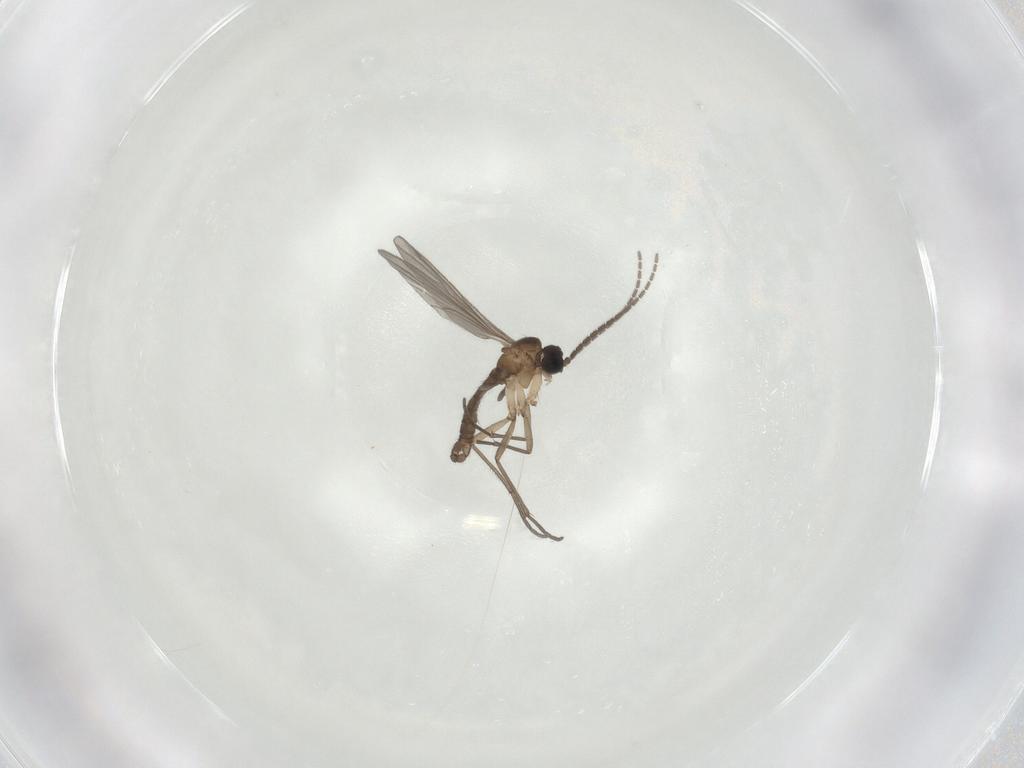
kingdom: Animalia
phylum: Arthropoda
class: Insecta
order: Diptera
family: Sciaridae
